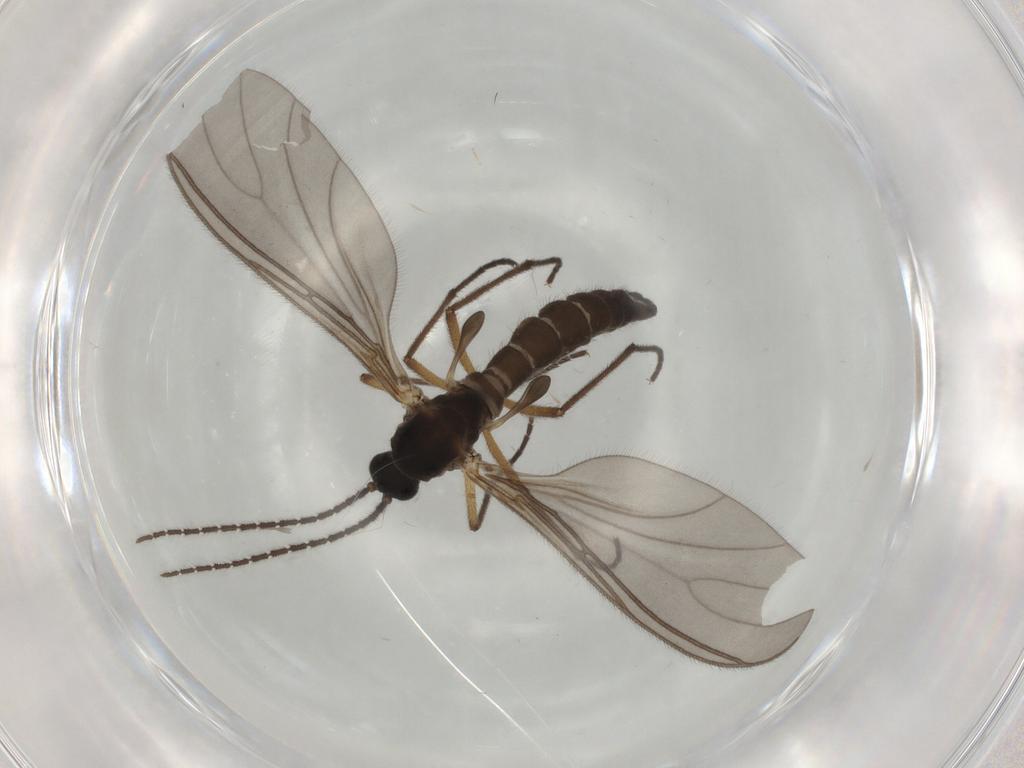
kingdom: Animalia
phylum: Arthropoda
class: Insecta
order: Diptera
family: Sciaridae
